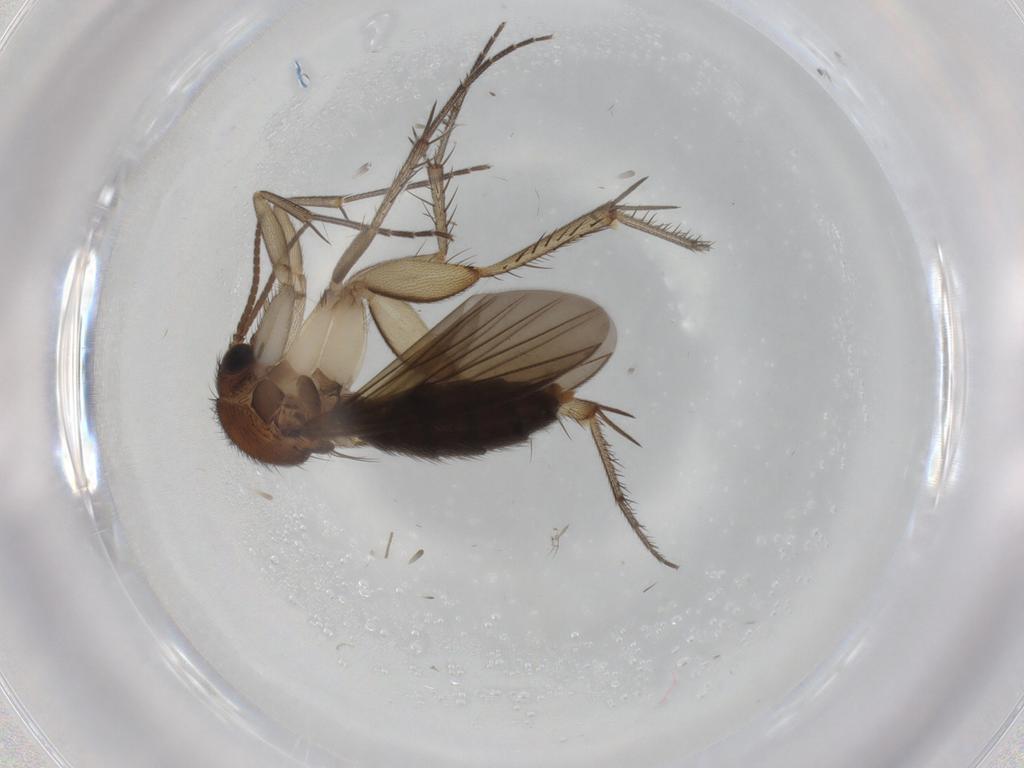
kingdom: Animalia
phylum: Arthropoda
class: Insecta
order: Diptera
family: Mycetophilidae
